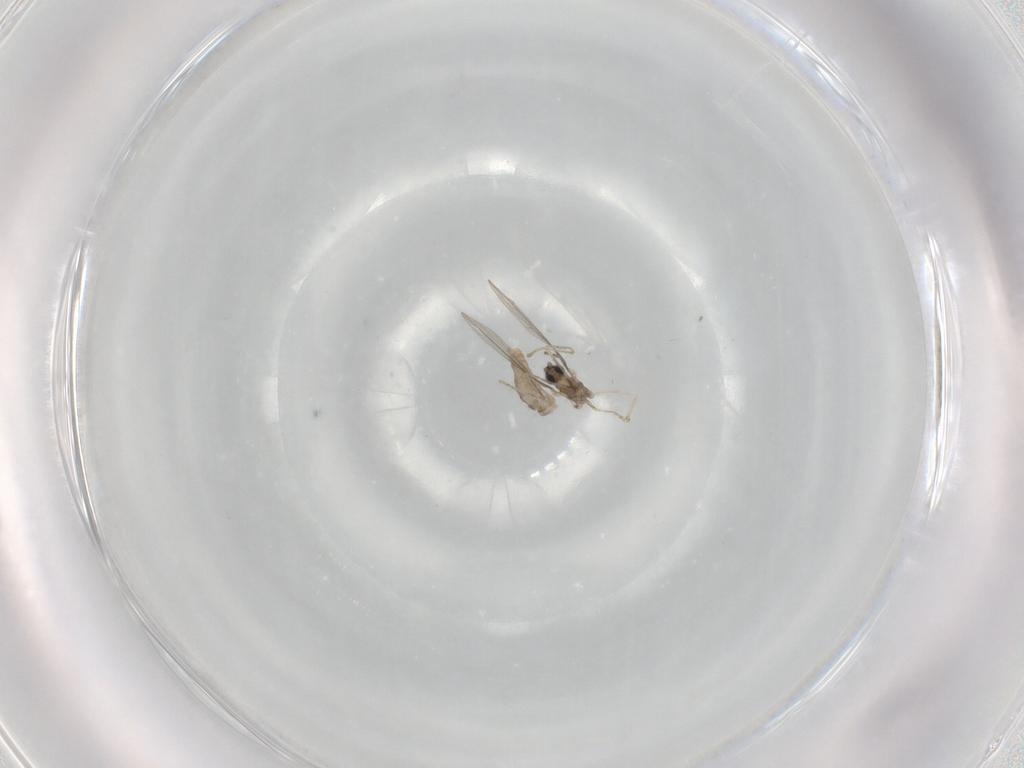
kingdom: Animalia
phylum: Arthropoda
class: Insecta
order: Diptera
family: Cecidomyiidae
